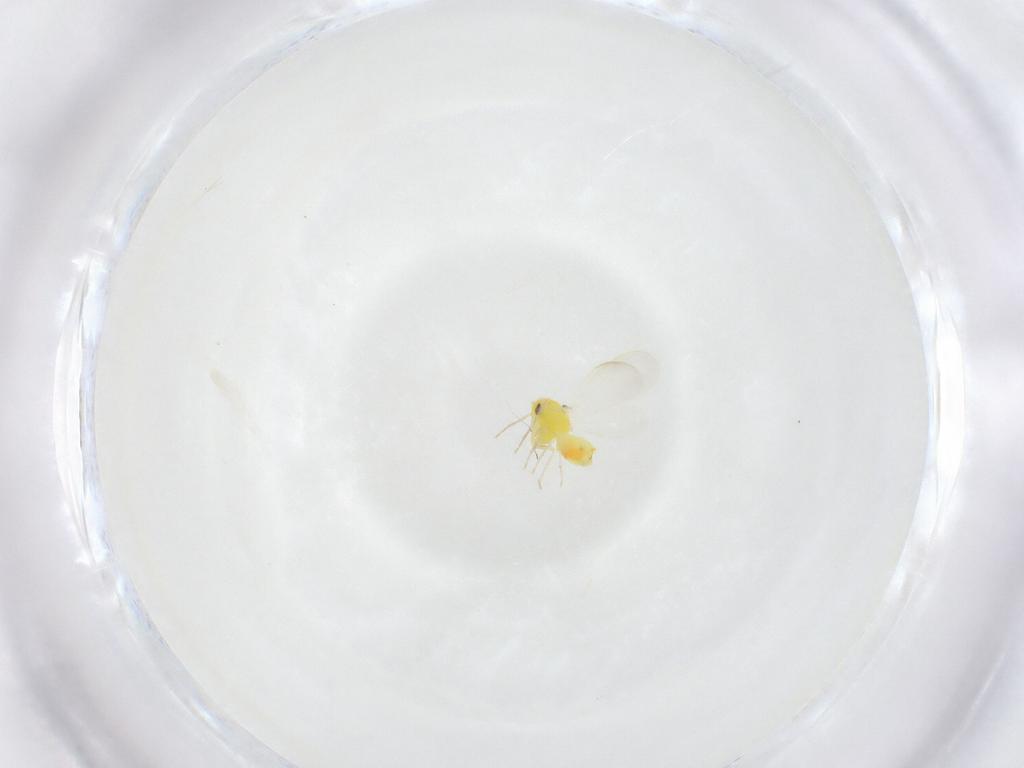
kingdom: Animalia
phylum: Arthropoda
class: Insecta
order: Hemiptera
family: Aleyrodidae
